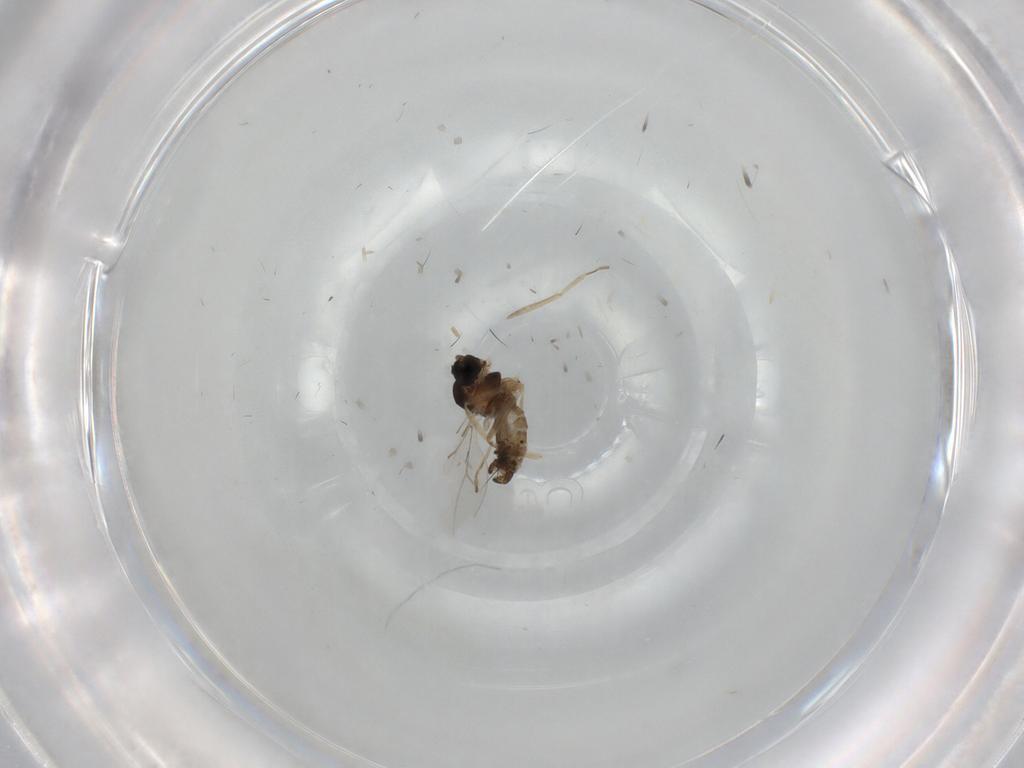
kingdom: Animalia
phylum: Arthropoda
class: Insecta
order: Diptera
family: Cecidomyiidae
